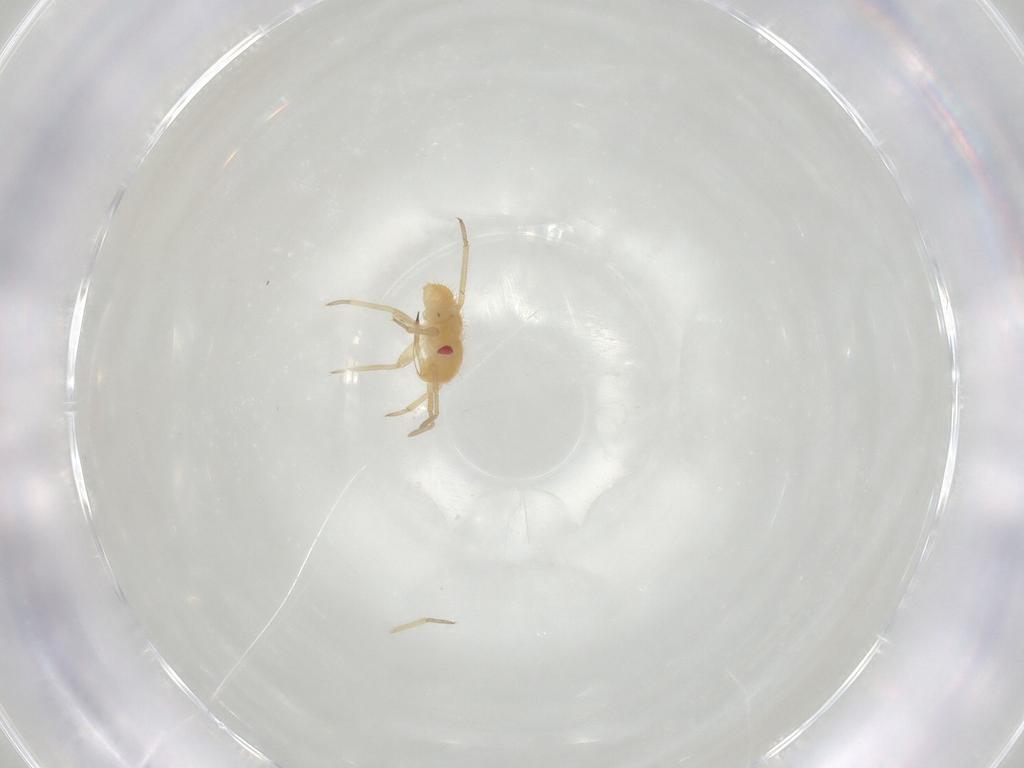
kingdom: Animalia
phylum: Arthropoda
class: Insecta
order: Hemiptera
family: Miridae
